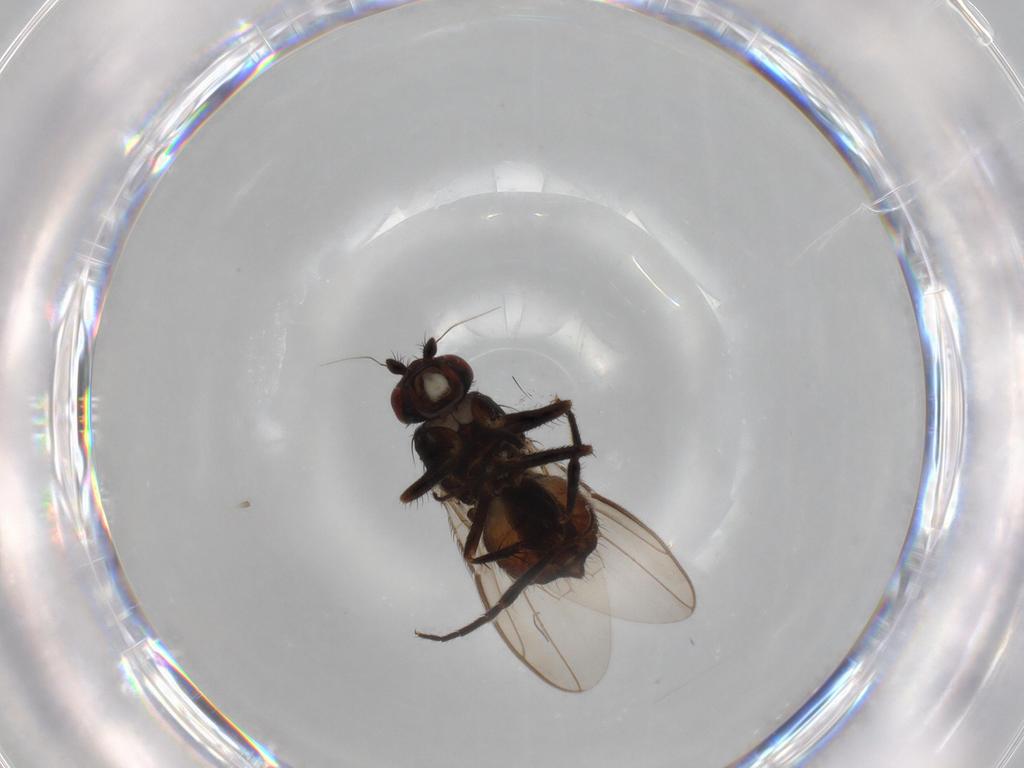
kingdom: Animalia
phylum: Arthropoda
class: Insecta
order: Diptera
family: Sphaeroceridae
